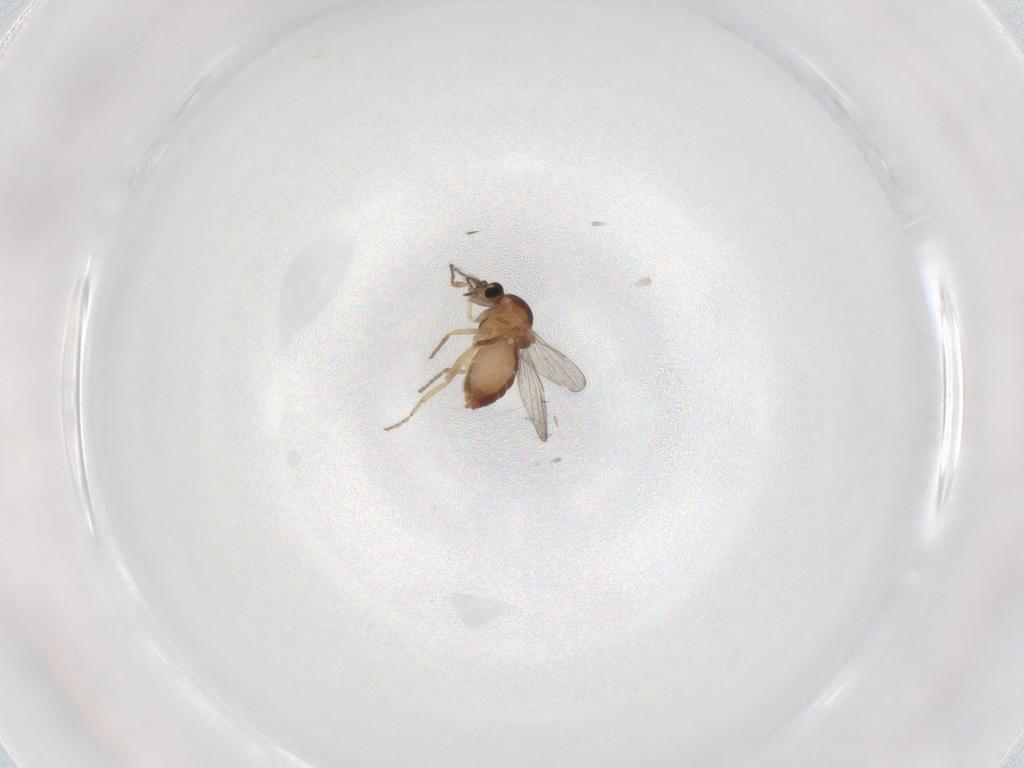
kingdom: Animalia
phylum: Arthropoda
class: Insecta
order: Diptera
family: Ceratopogonidae
